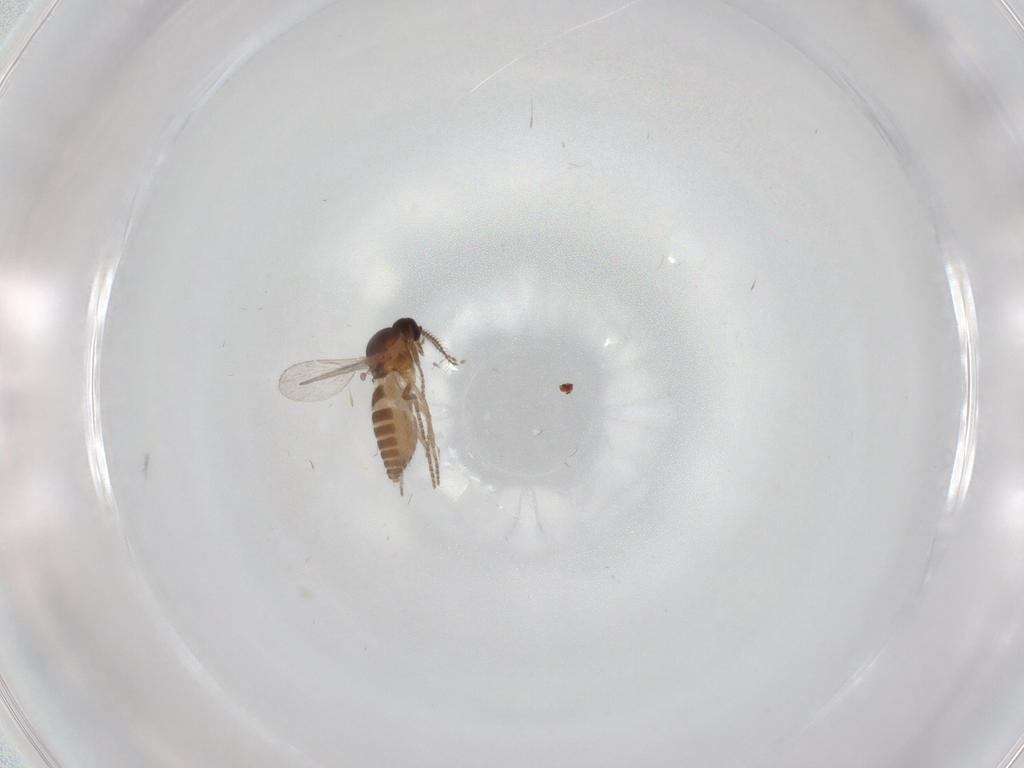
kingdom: Animalia
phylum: Arthropoda
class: Insecta
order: Diptera
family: Ceratopogonidae
